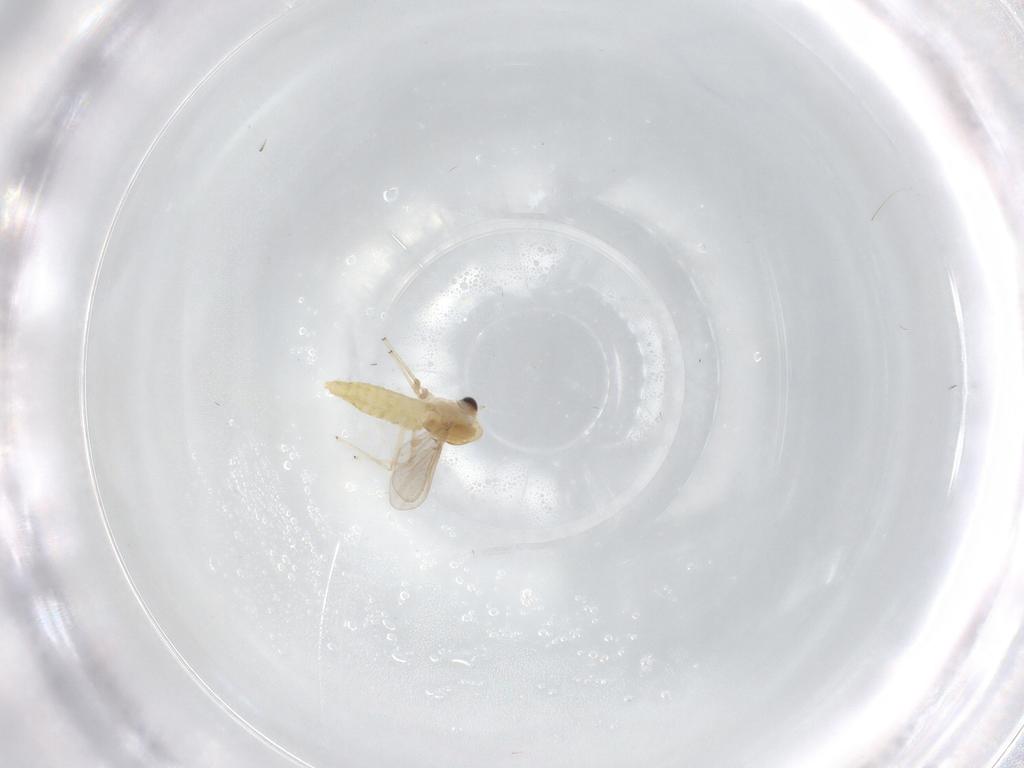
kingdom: Animalia
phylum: Arthropoda
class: Insecta
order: Diptera
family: Chironomidae
